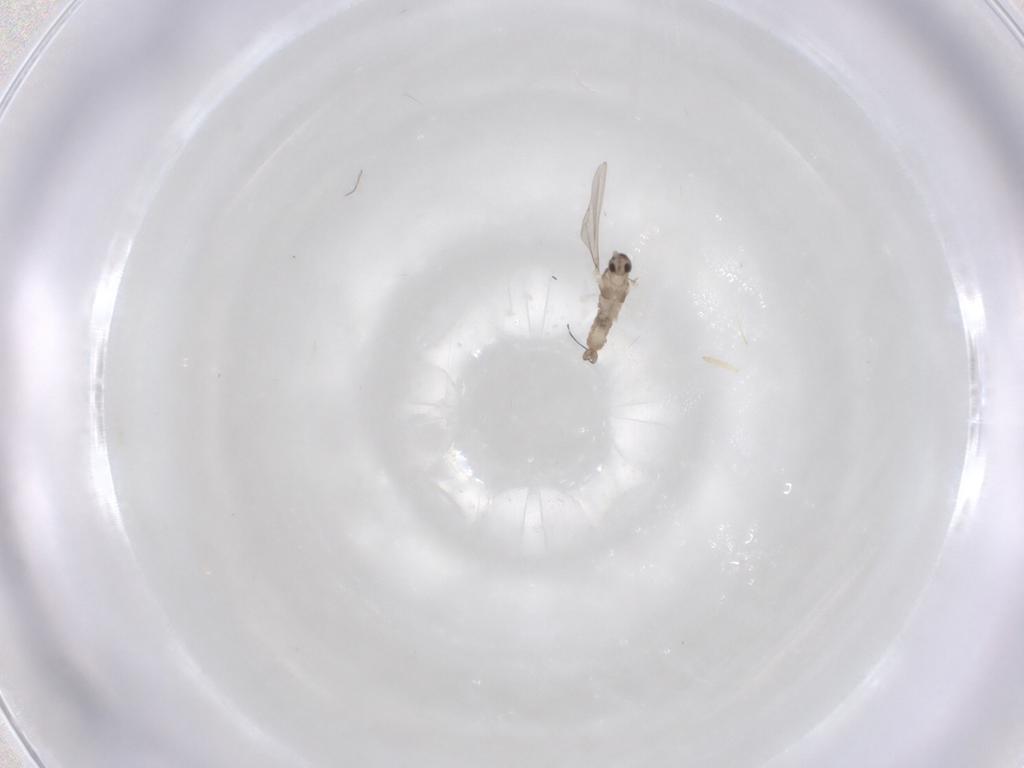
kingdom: Animalia
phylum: Arthropoda
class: Insecta
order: Diptera
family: Cecidomyiidae
